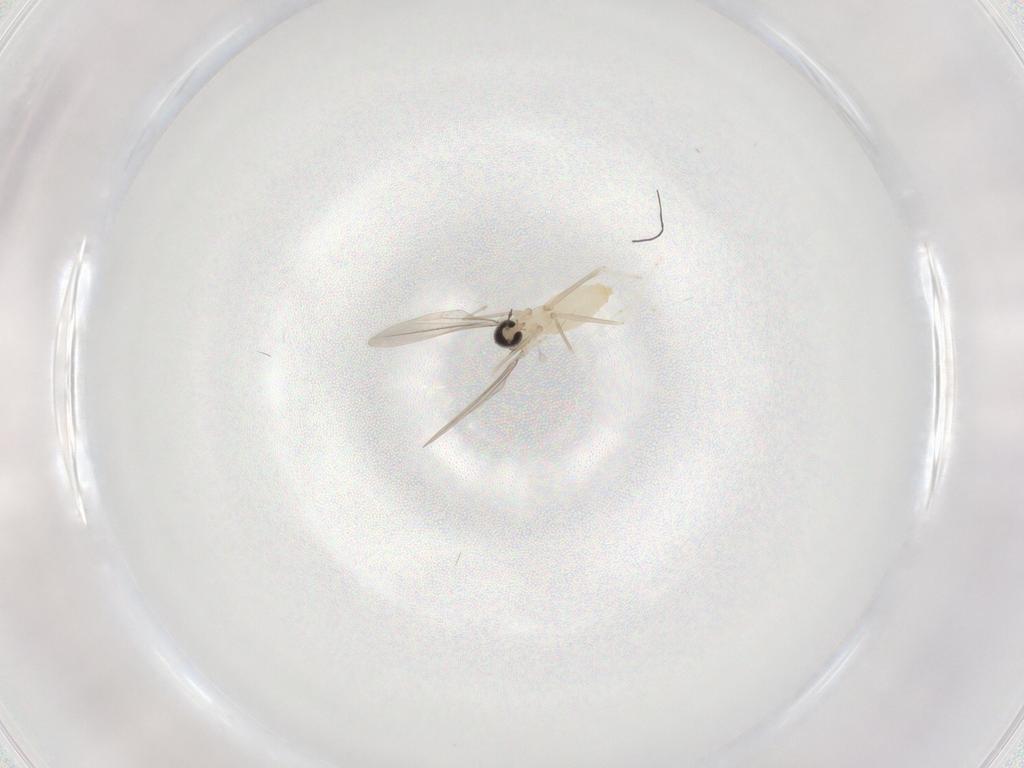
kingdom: Animalia
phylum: Arthropoda
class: Insecta
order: Diptera
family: Cecidomyiidae
